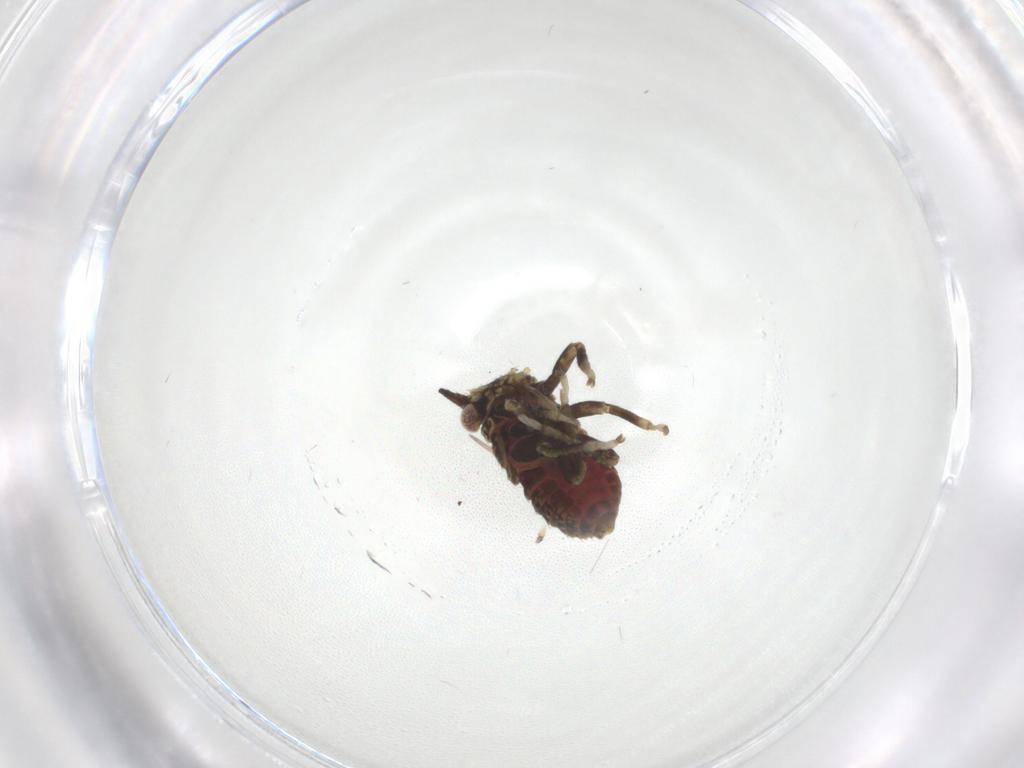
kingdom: Animalia
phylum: Arthropoda
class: Insecta
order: Hemiptera
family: Cicadellidae
